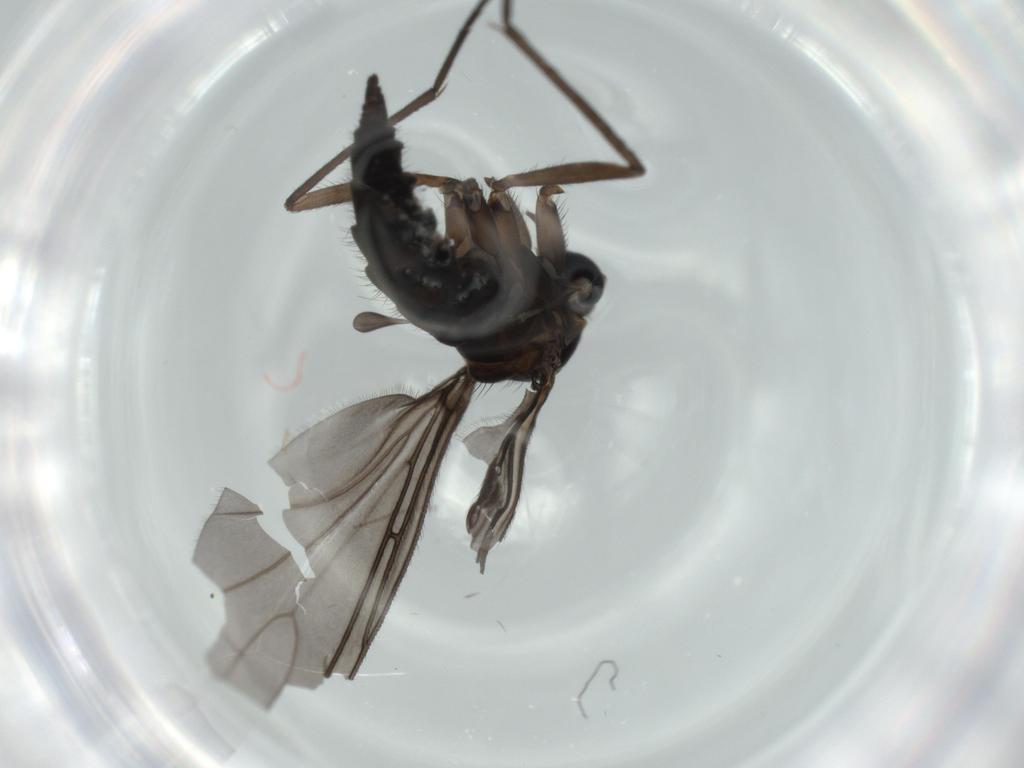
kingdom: Animalia
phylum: Arthropoda
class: Insecta
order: Diptera
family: Sciaridae
